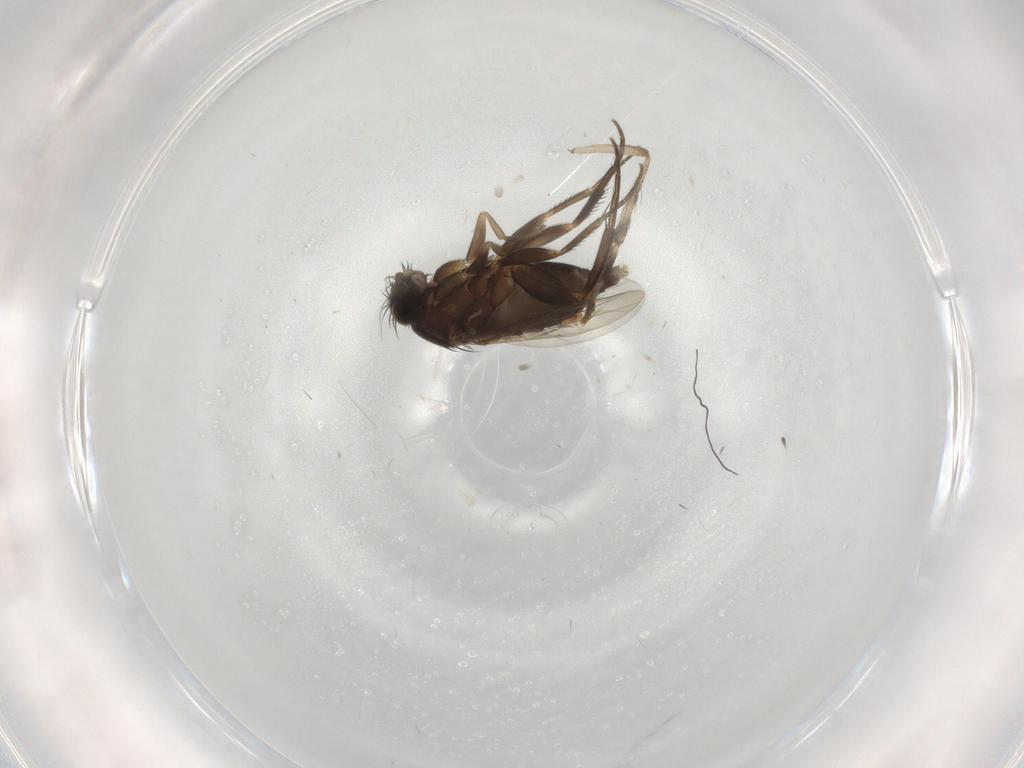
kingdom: Animalia
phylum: Arthropoda
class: Insecta
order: Diptera
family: Phoridae
